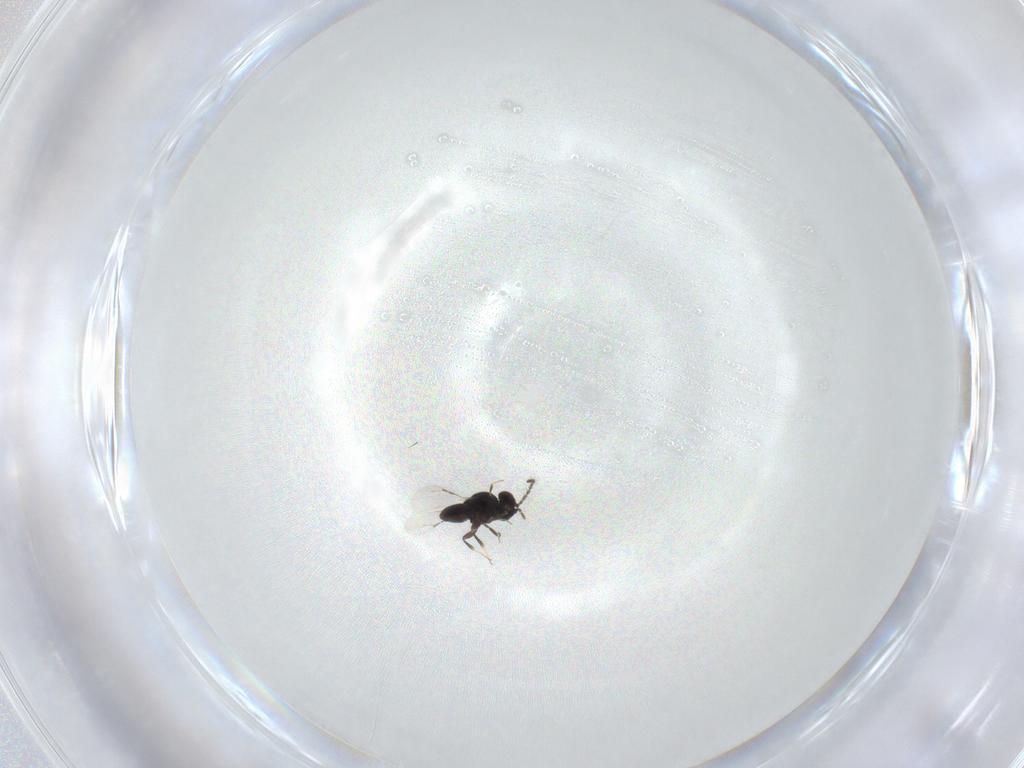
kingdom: Animalia
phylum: Arthropoda
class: Insecta
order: Hymenoptera
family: Ceraphronidae
